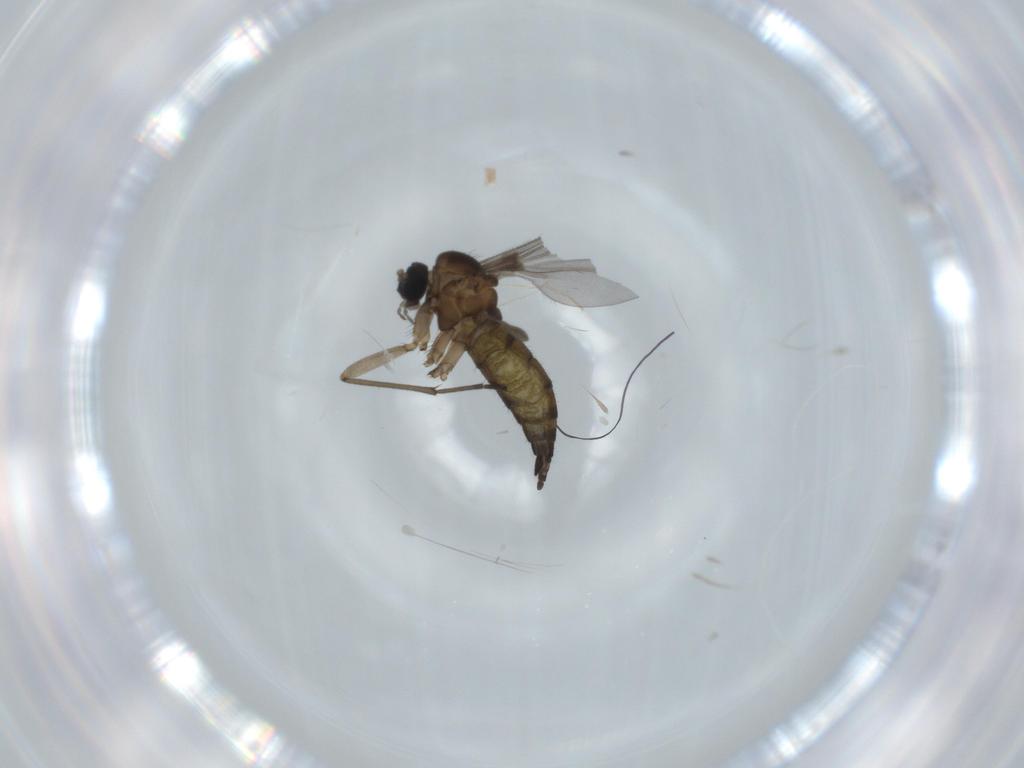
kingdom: Animalia
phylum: Arthropoda
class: Insecta
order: Diptera
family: Sciaridae
